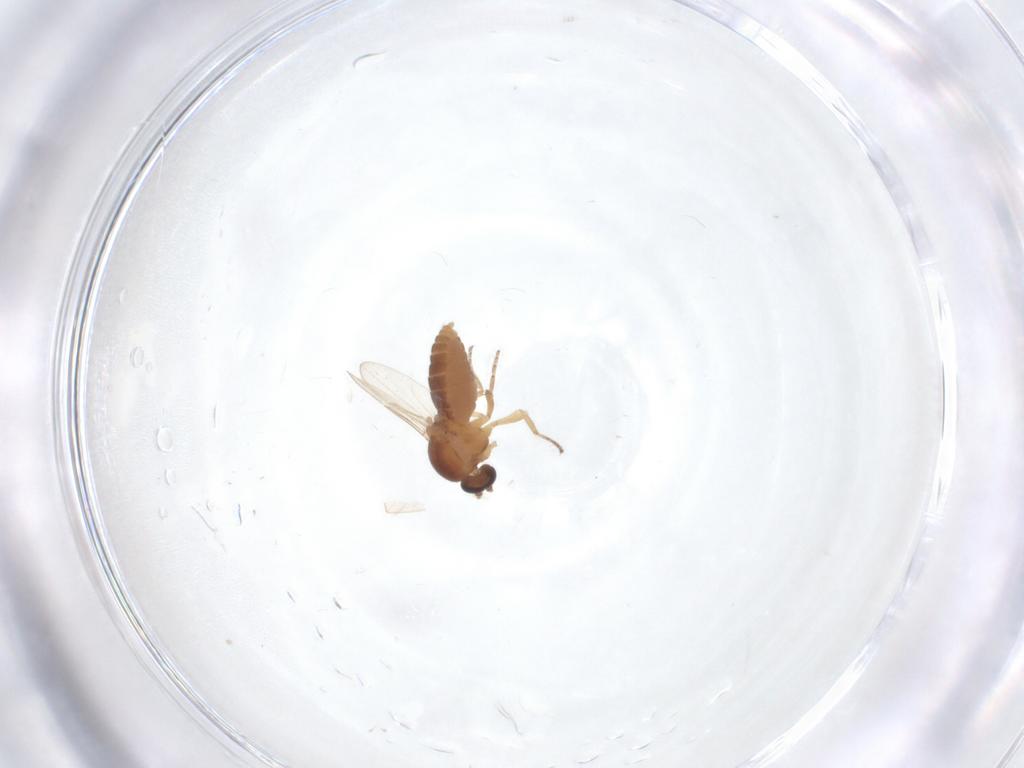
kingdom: Animalia
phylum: Arthropoda
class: Insecta
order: Diptera
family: Ceratopogonidae
